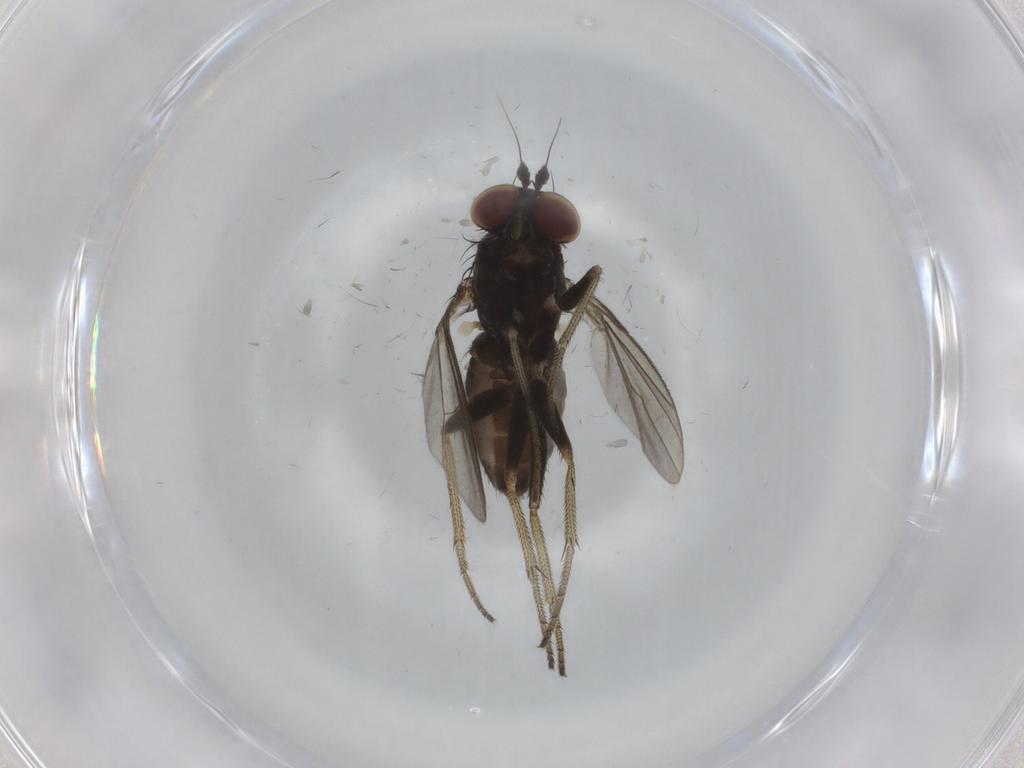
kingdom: Animalia
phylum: Arthropoda
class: Insecta
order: Diptera
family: Dolichopodidae
